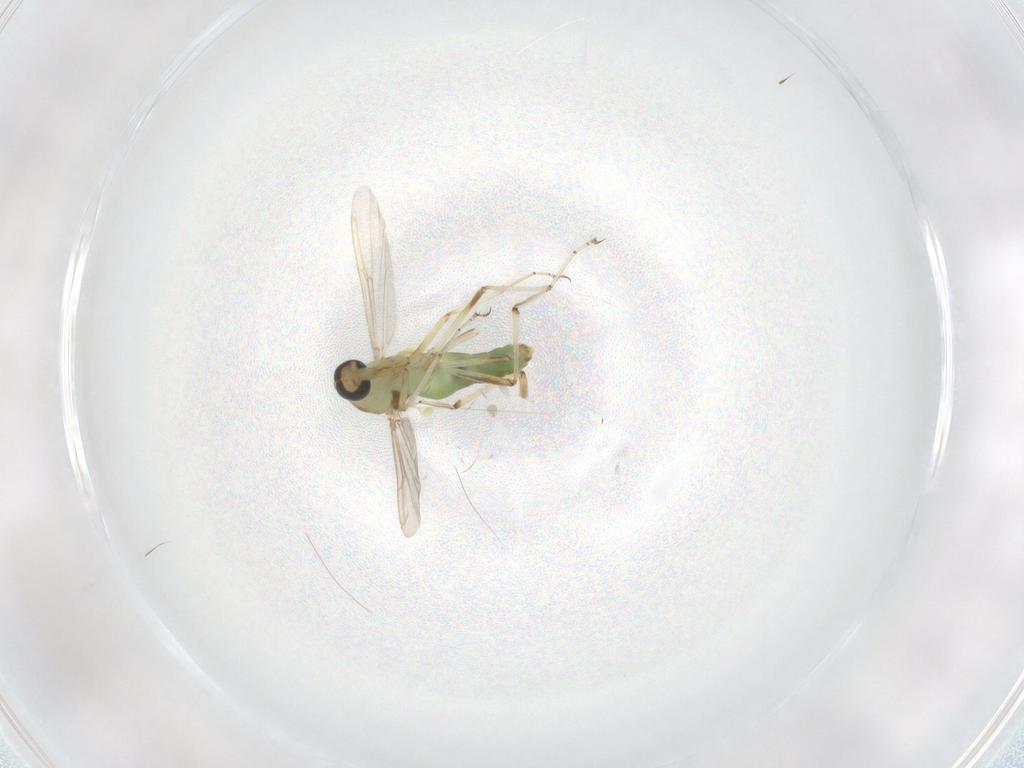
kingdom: Animalia
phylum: Arthropoda
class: Insecta
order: Diptera
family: Ceratopogonidae
